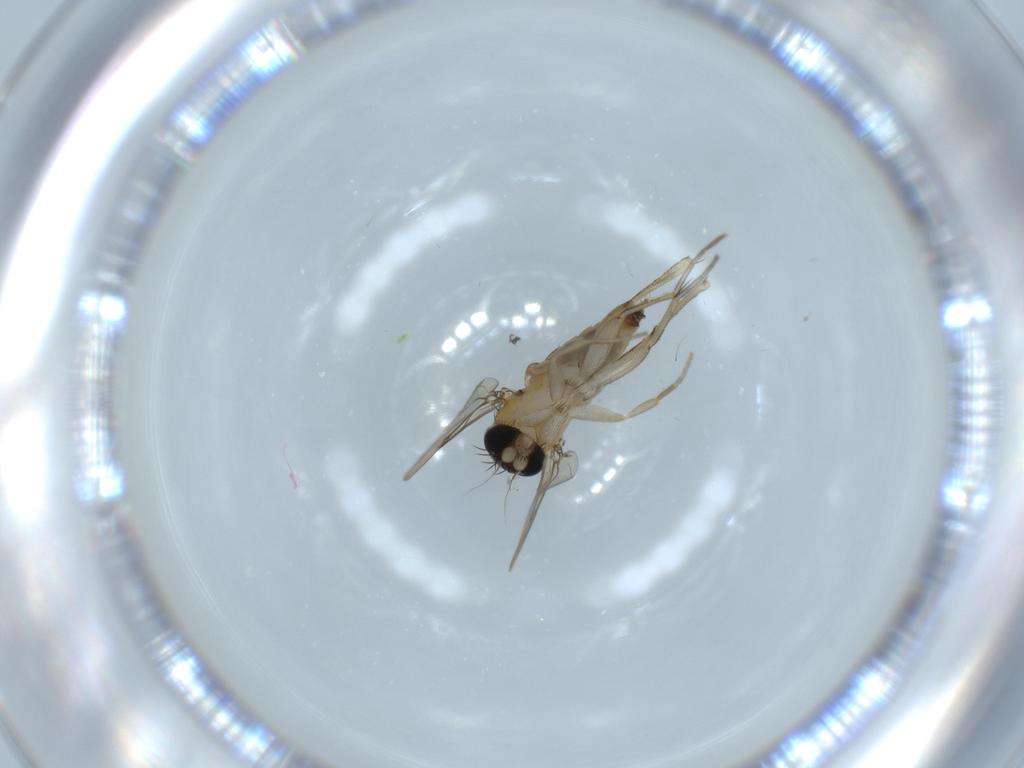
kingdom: Animalia
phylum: Arthropoda
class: Insecta
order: Diptera
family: Phoridae
